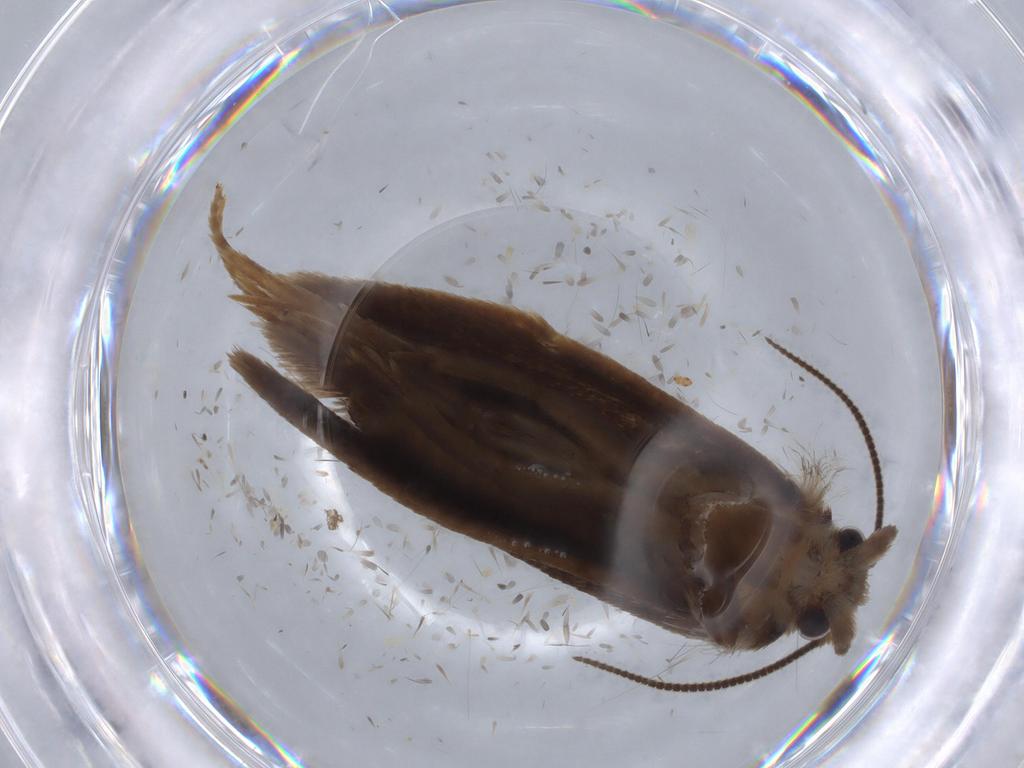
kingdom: Animalia
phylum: Arthropoda
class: Insecta
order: Lepidoptera
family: Tineidae
